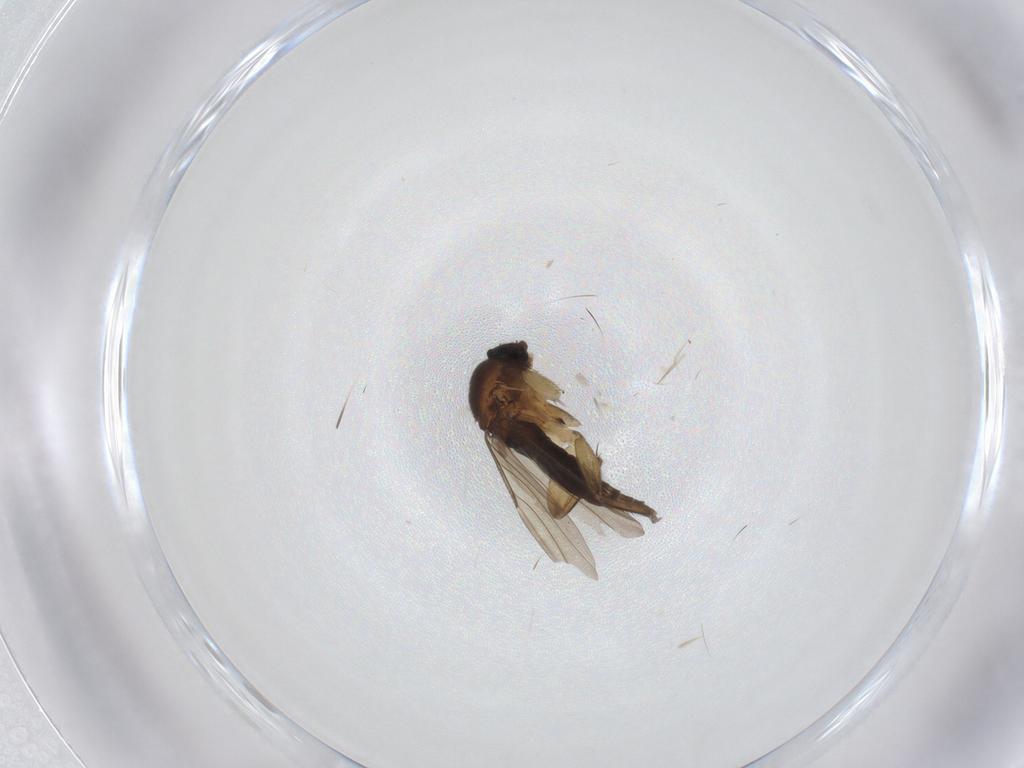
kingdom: Animalia
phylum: Arthropoda
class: Insecta
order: Diptera
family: Phoridae
